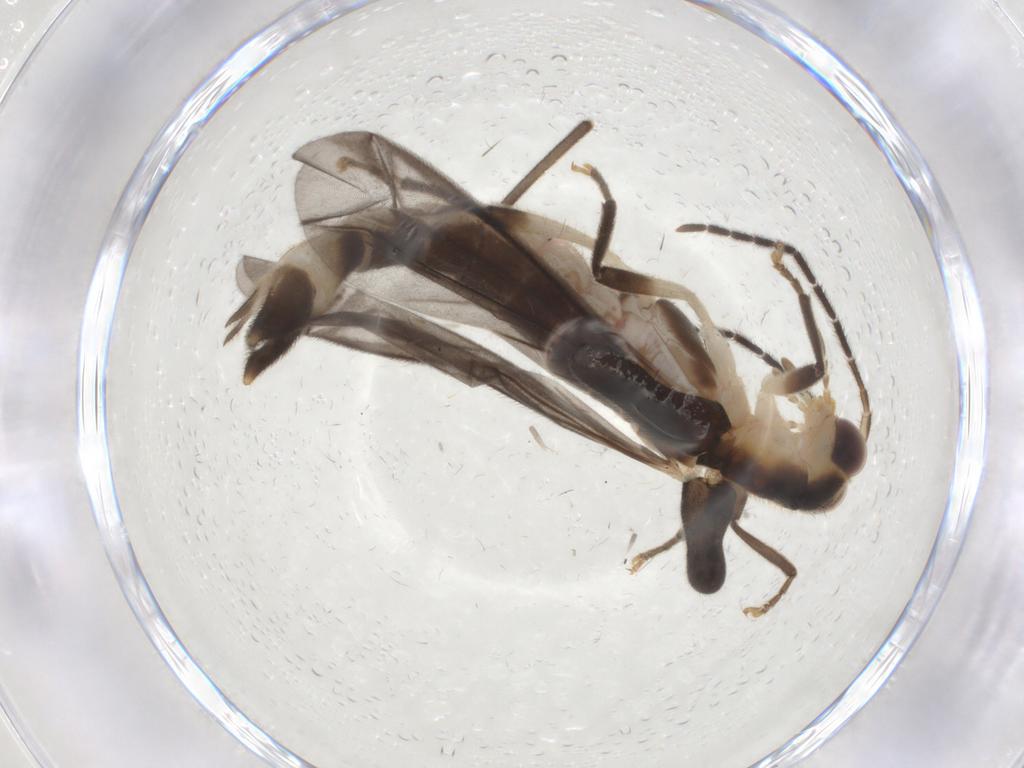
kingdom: Animalia
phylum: Arthropoda
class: Insecta
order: Coleoptera
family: Cantharidae
